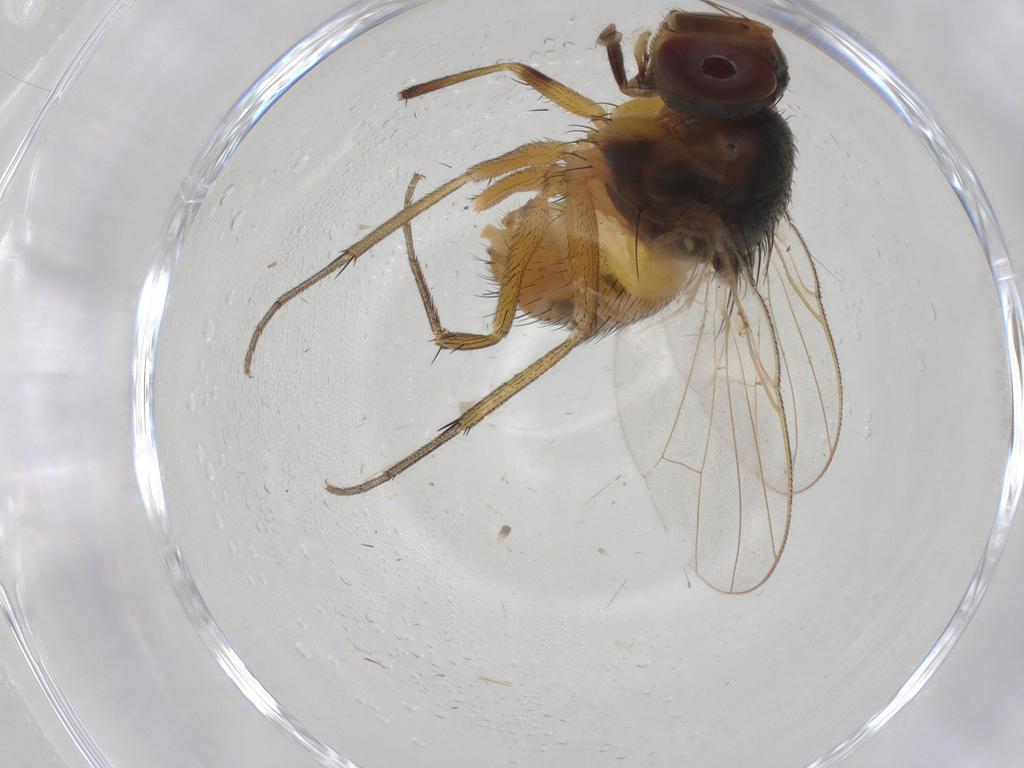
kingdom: Animalia
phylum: Arthropoda
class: Insecta
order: Diptera
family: Muscidae
